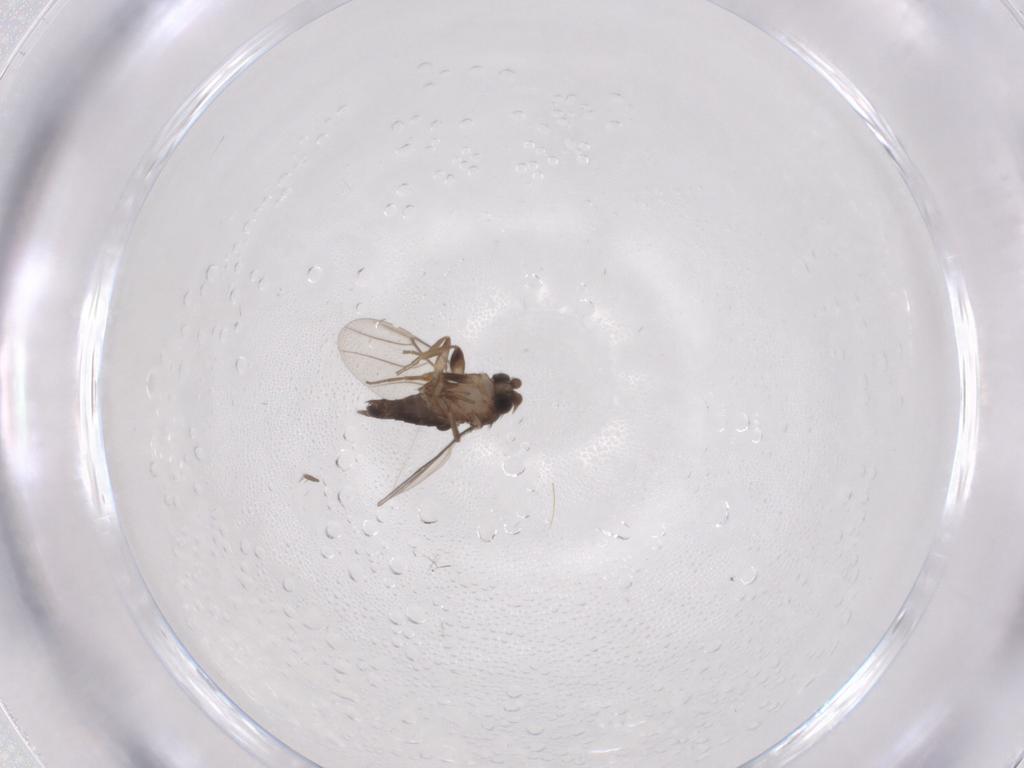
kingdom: Animalia
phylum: Arthropoda
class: Insecta
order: Diptera
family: Phoridae
